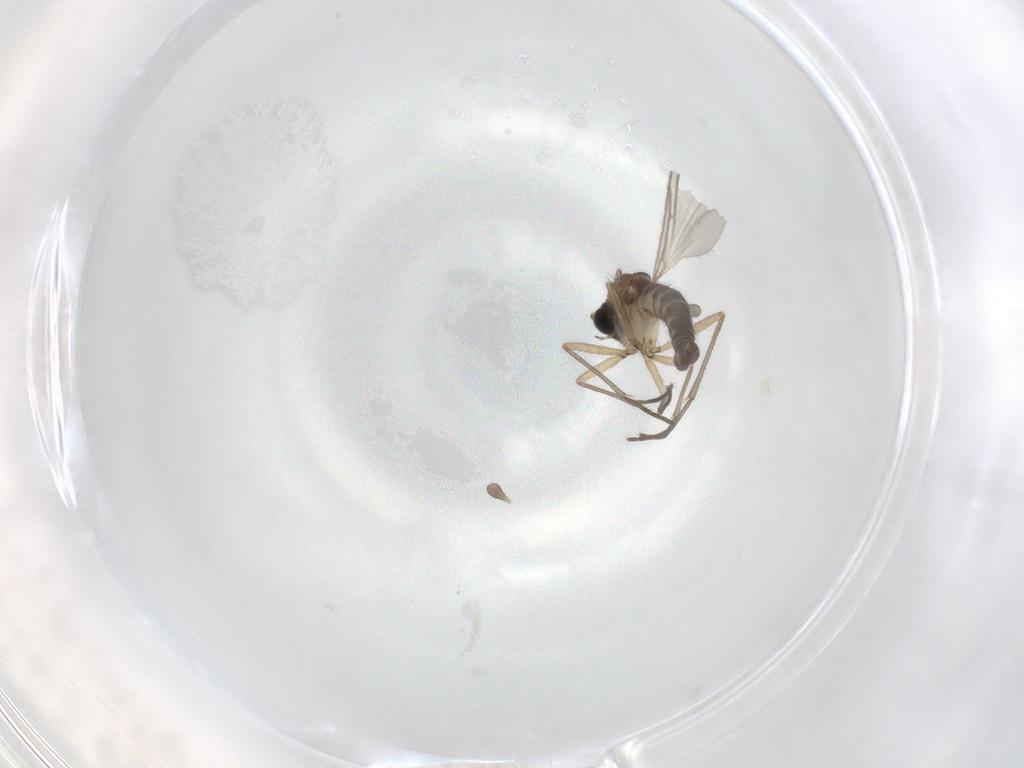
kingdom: Animalia
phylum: Arthropoda
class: Insecta
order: Diptera
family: Sciaridae
